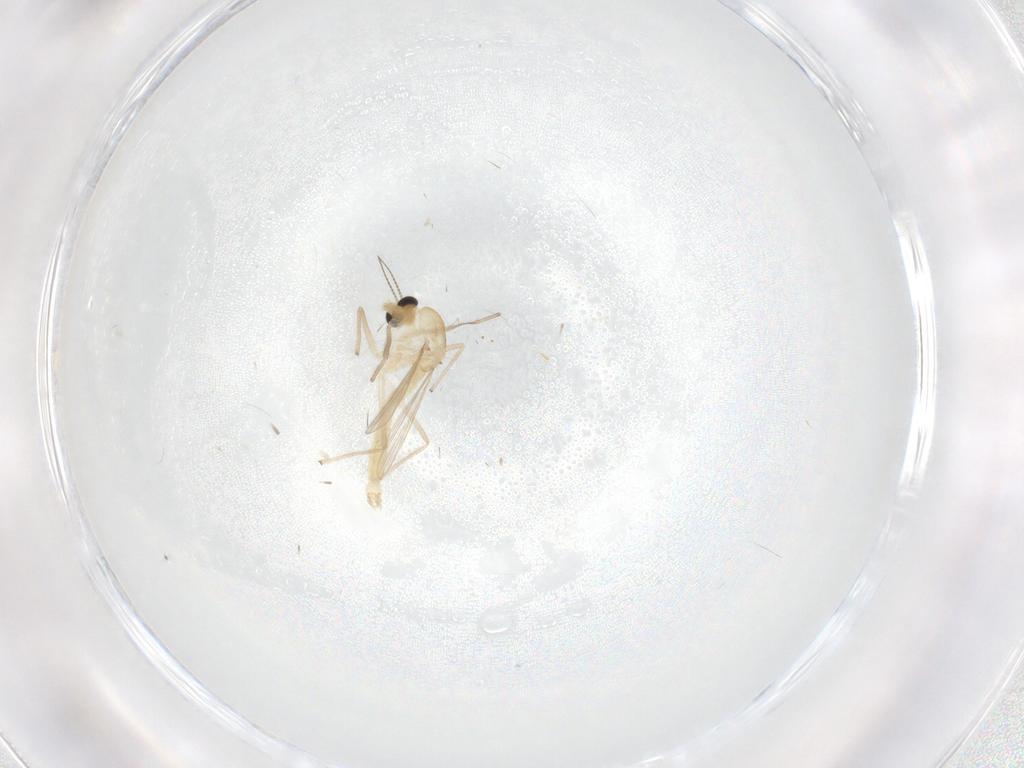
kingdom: Animalia
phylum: Arthropoda
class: Insecta
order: Diptera
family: Chironomidae
